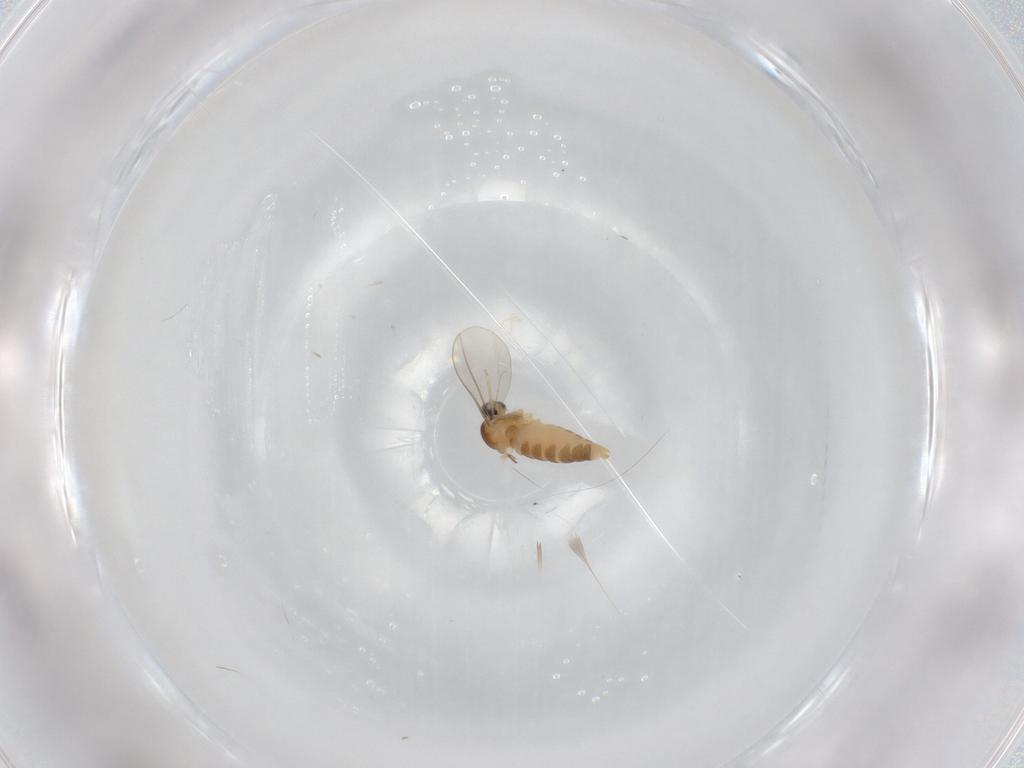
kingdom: Animalia
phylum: Arthropoda
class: Insecta
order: Diptera
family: Cecidomyiidae
